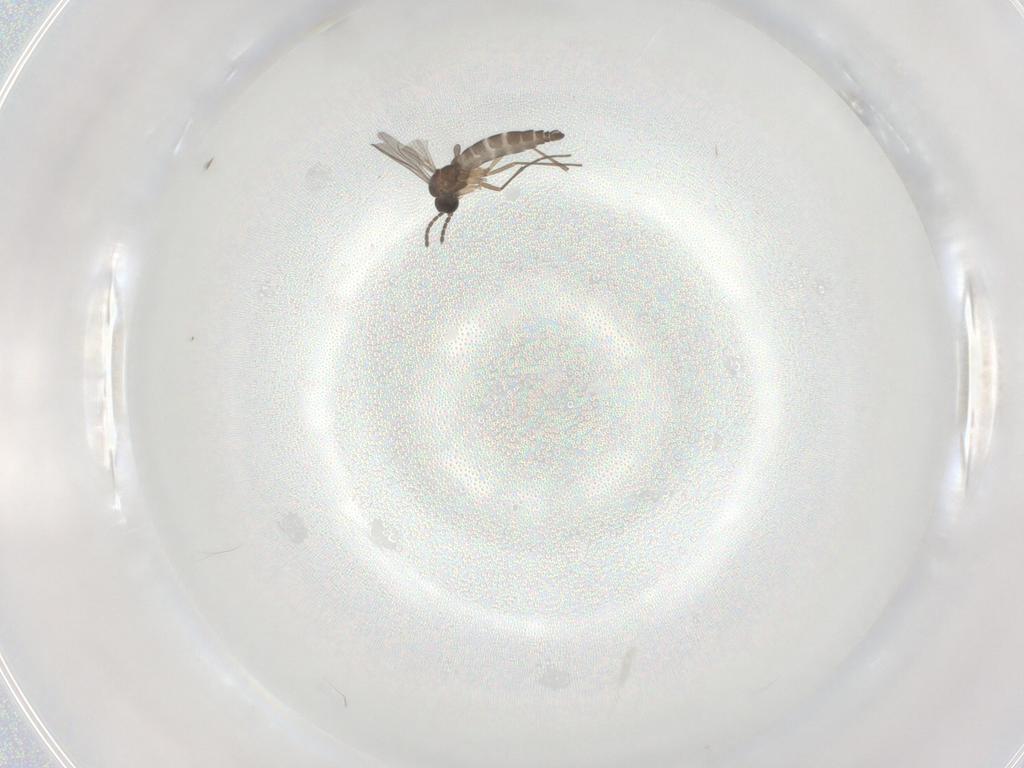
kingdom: Animalia
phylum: Arthropoda
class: Insecta
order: Diptera
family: Sciaridae
